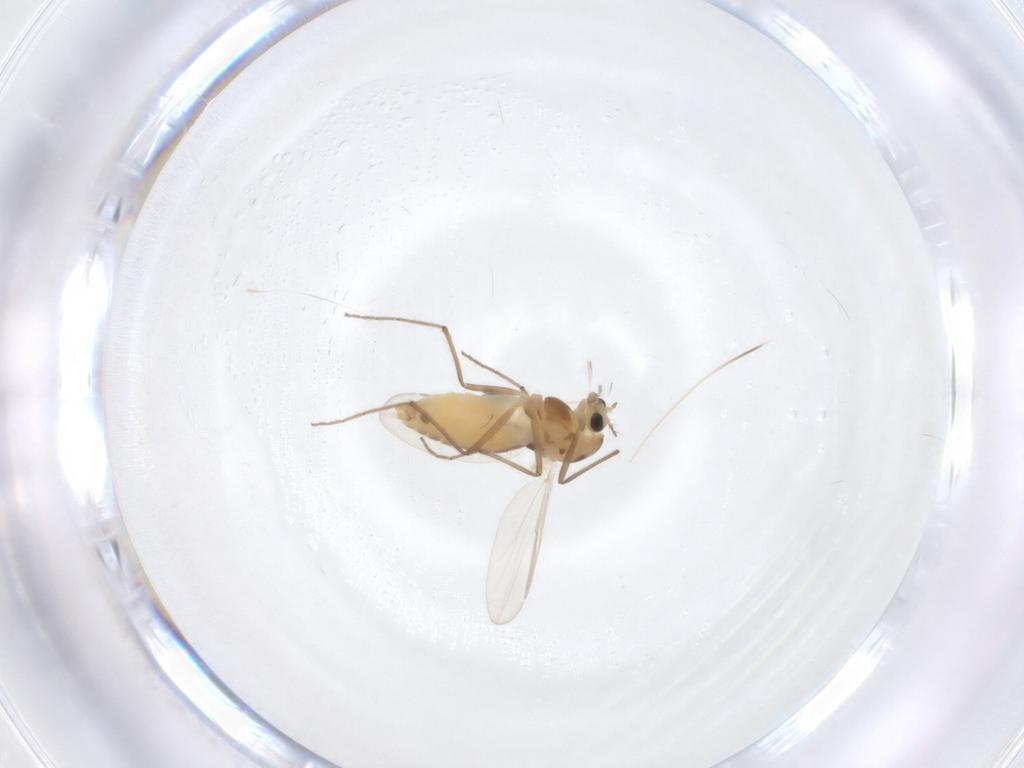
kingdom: Animalia
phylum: Arthropoda
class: Insecta
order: Diptera
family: Chironomidae
